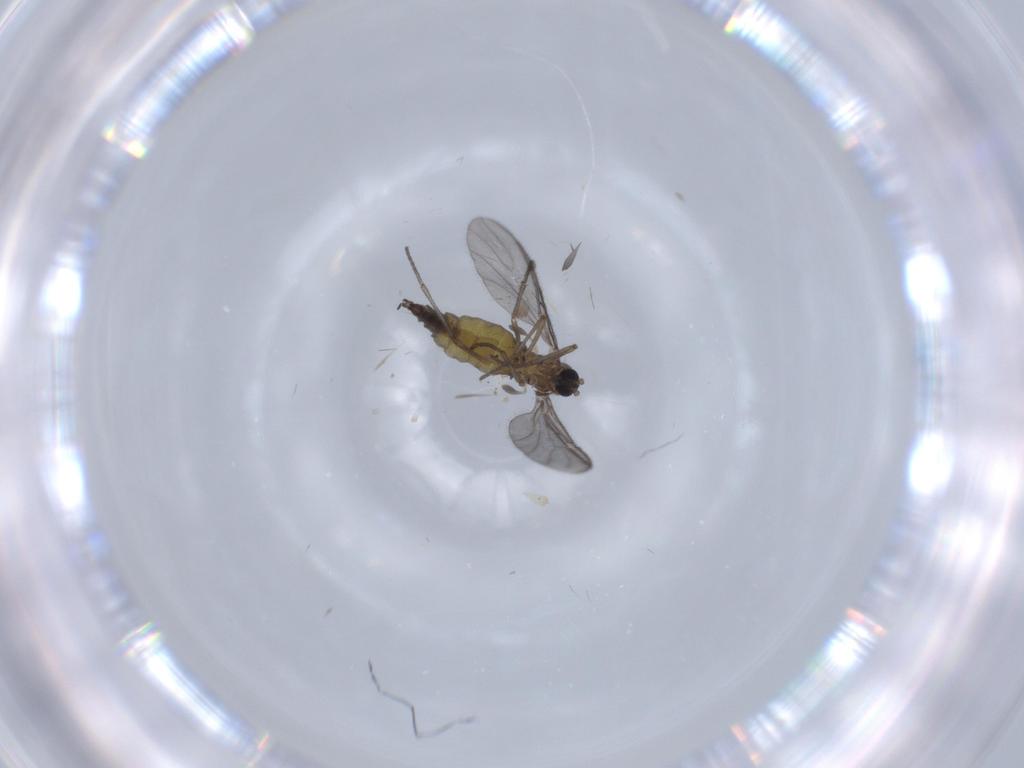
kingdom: Animalia
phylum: Arthropoda
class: Insecta
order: Diptera
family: Sciaridae
